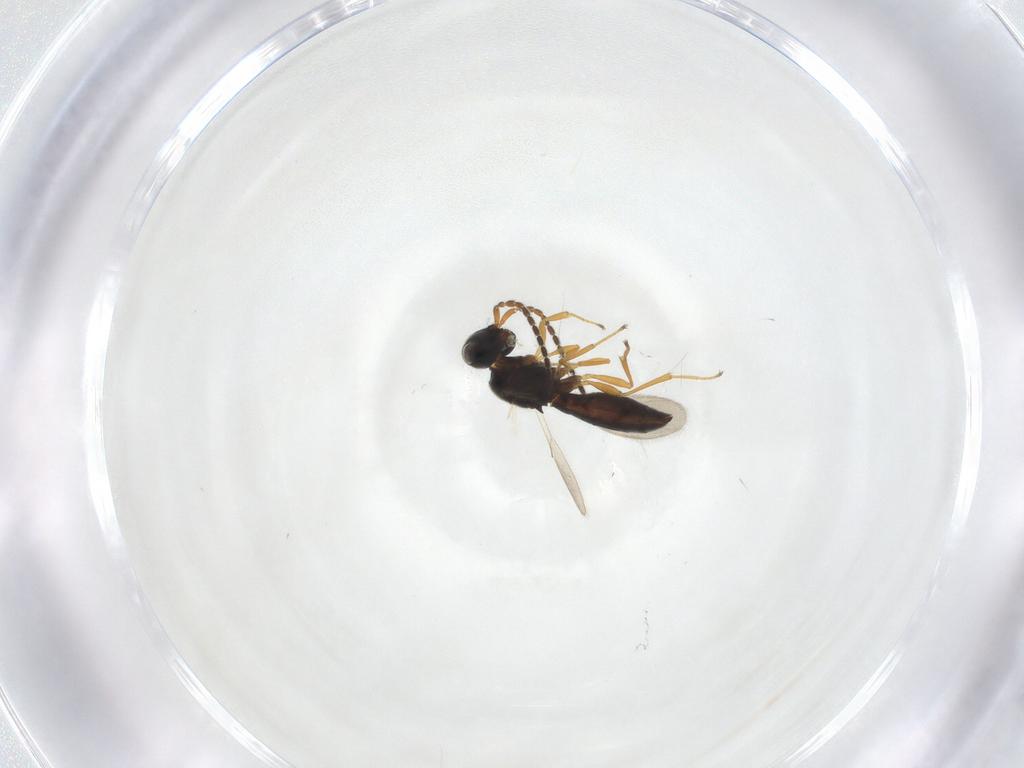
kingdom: Animalia
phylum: Arthropoda
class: Insecta
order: Hymenoptera
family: Scelionidae
